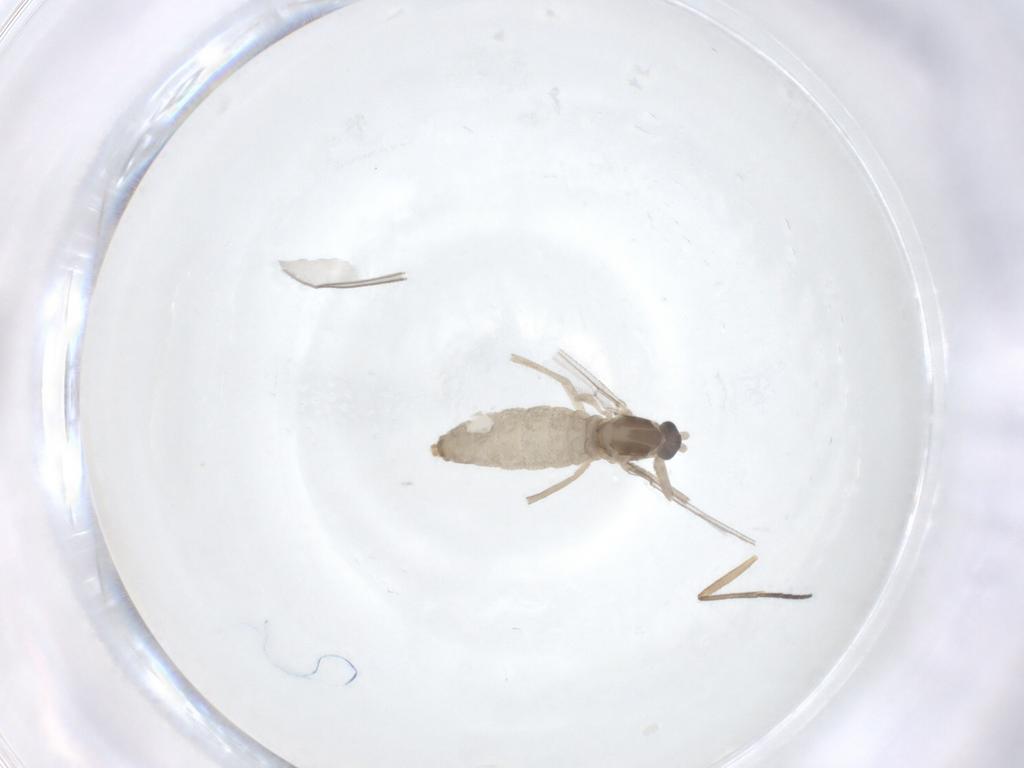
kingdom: Animalia
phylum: Arthropoda
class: Insecta
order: Diptera
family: Sciaridae
